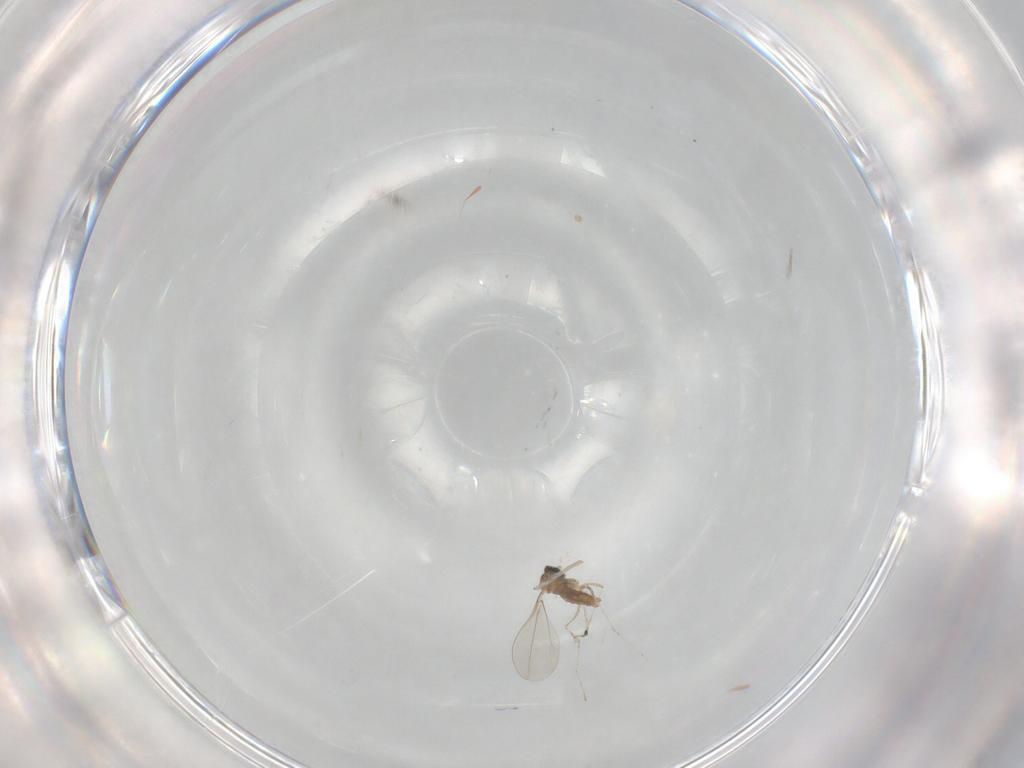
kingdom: Animalia
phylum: Arthropoda
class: Insecta
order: Diptera
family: Cecidomyiidae
